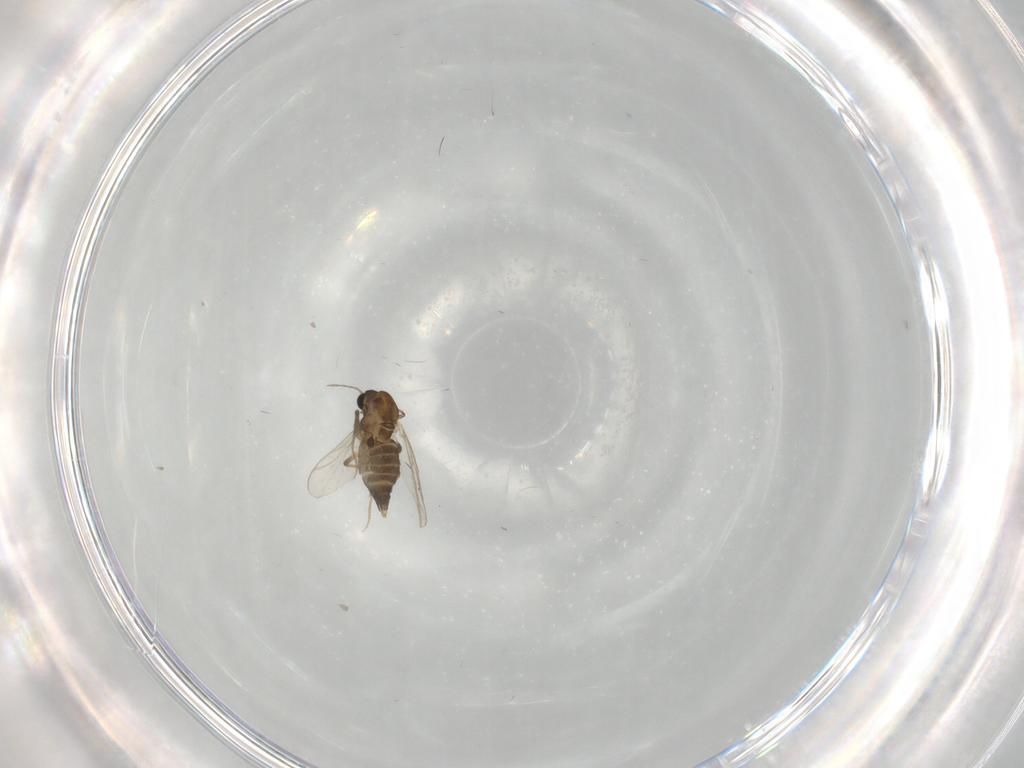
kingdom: Animalia
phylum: Arthropoda
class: Insecta
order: Diptera
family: Chironomidae
